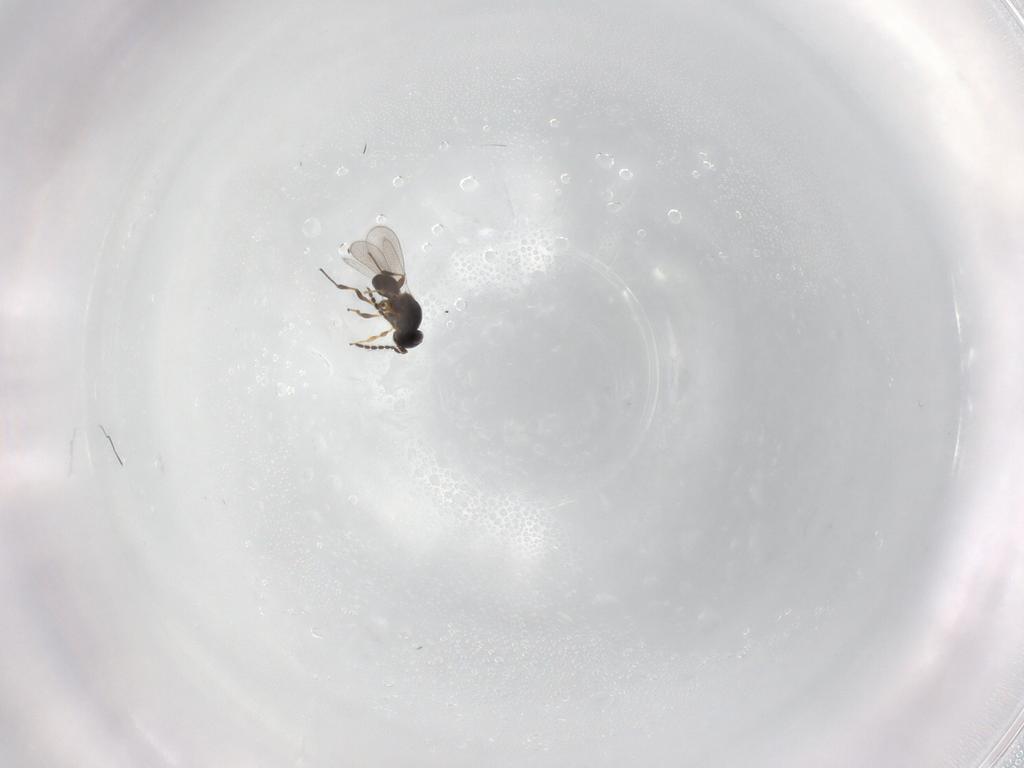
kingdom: Animalia
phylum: Arthropoda
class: Insecta
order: Hymenoptera
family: Platygastridae
